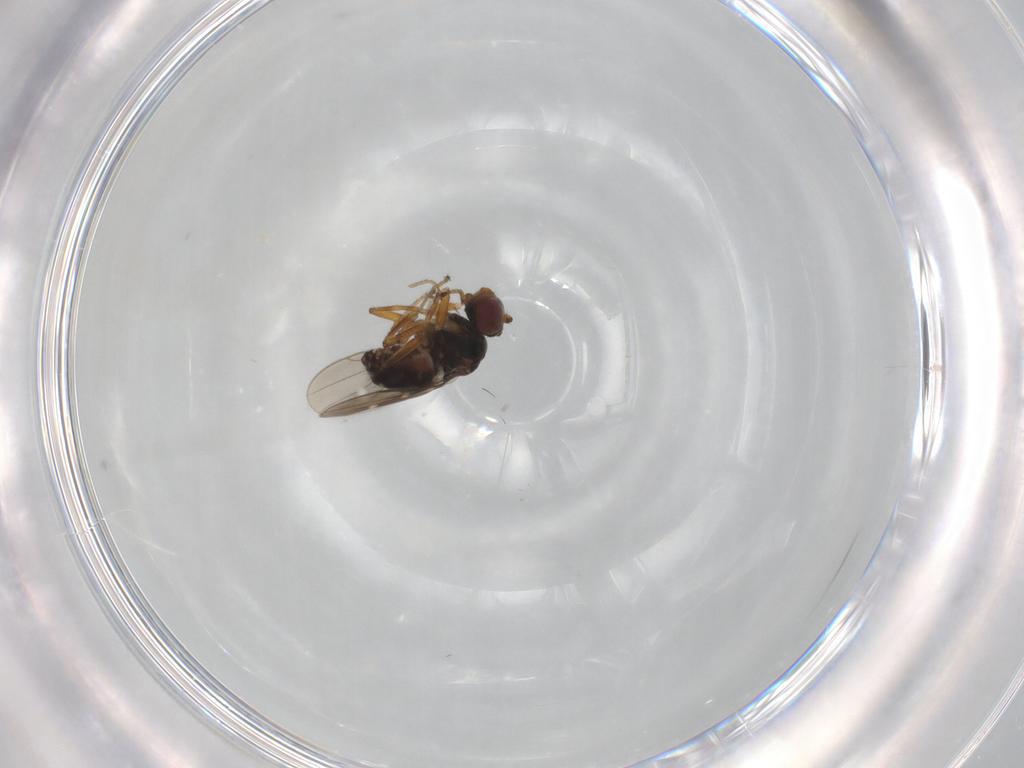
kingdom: Animalia
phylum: Arthropoda
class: Insecta
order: Diptera
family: Ephydridae
